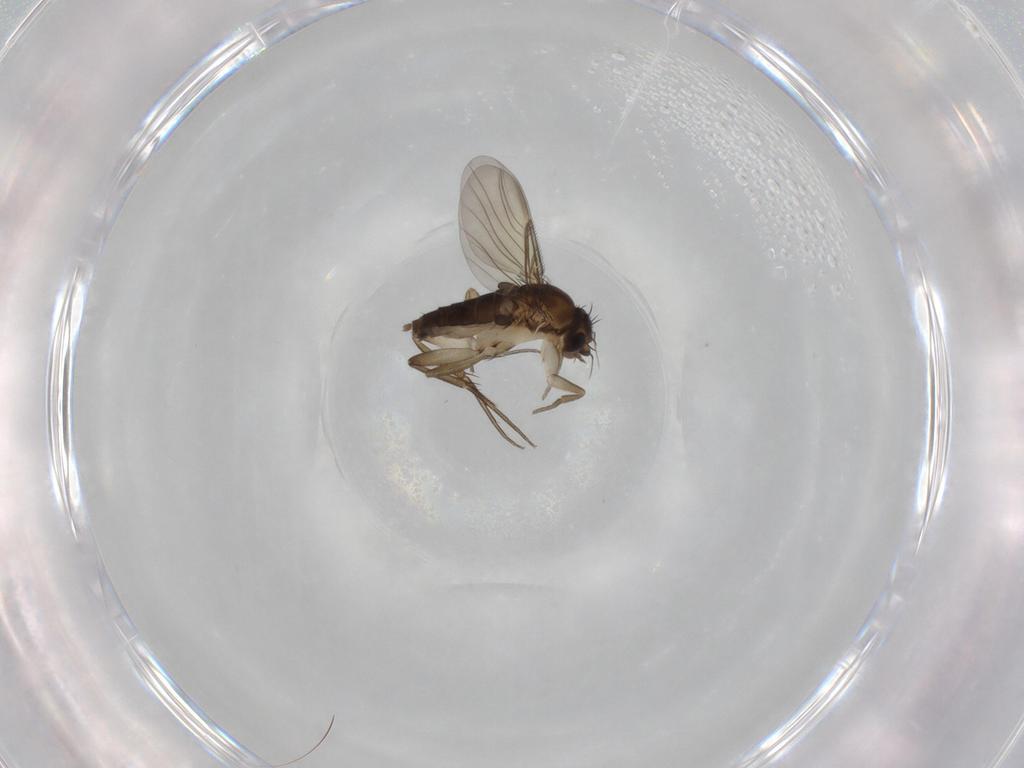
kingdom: Animalia
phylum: Arthropoda
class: Insecta
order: Diptera
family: Phoridae
